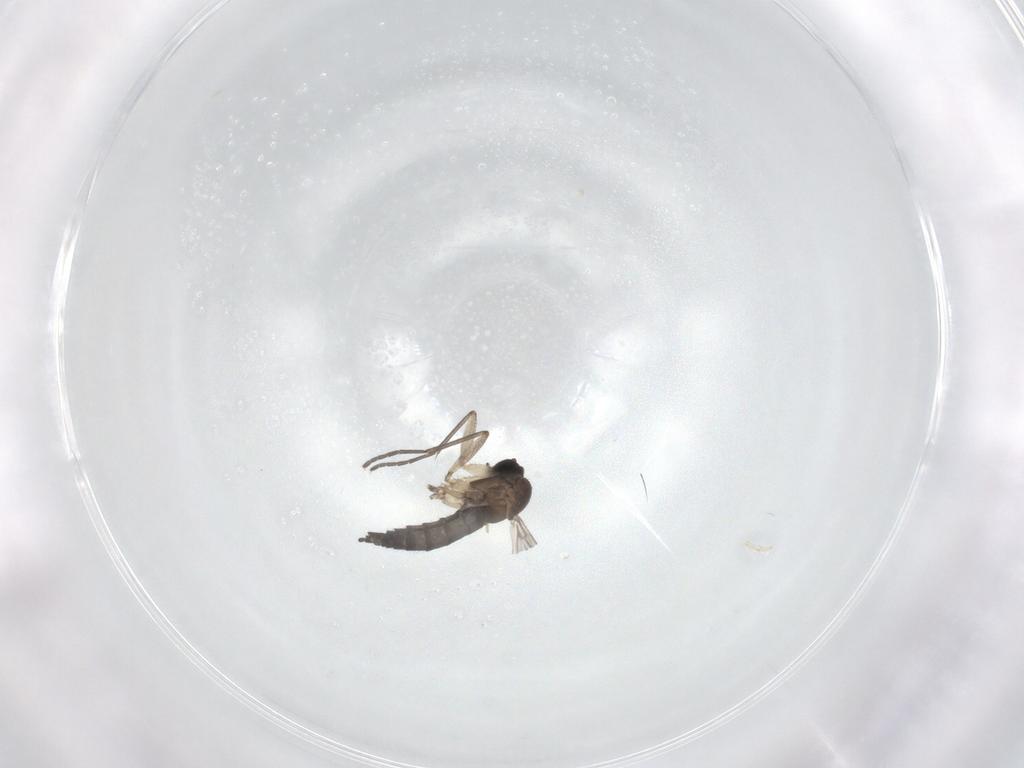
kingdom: Animalia
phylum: Arthropoda
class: Insecta
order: Diptera
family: Sciaridae
